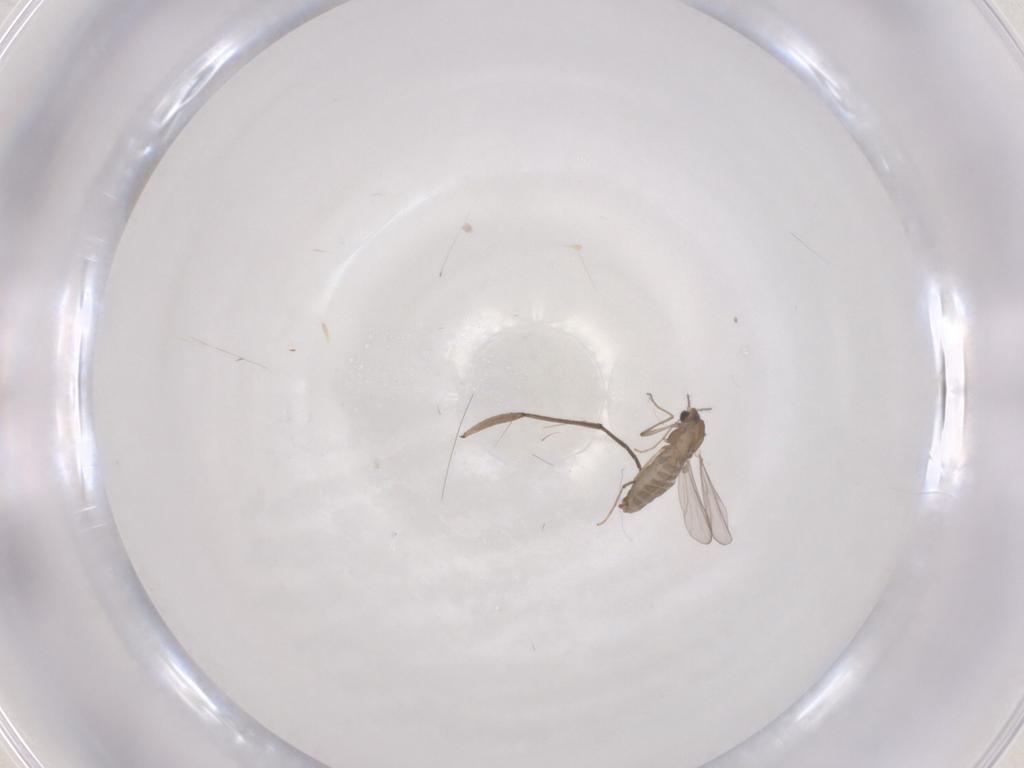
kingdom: Animalia
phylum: Arthropoda
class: Insecta
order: Diptera
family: Chironomidae
